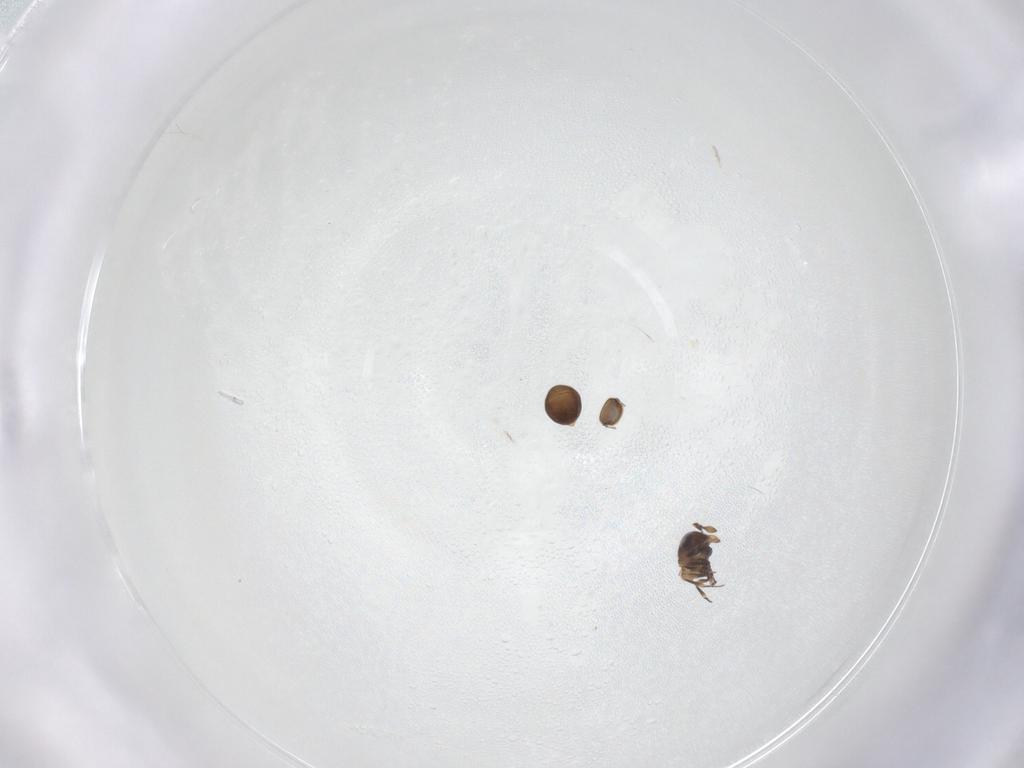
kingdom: Animalia
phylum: Arthropoda
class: Insecta
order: Hymenoptera
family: Scelionidae
